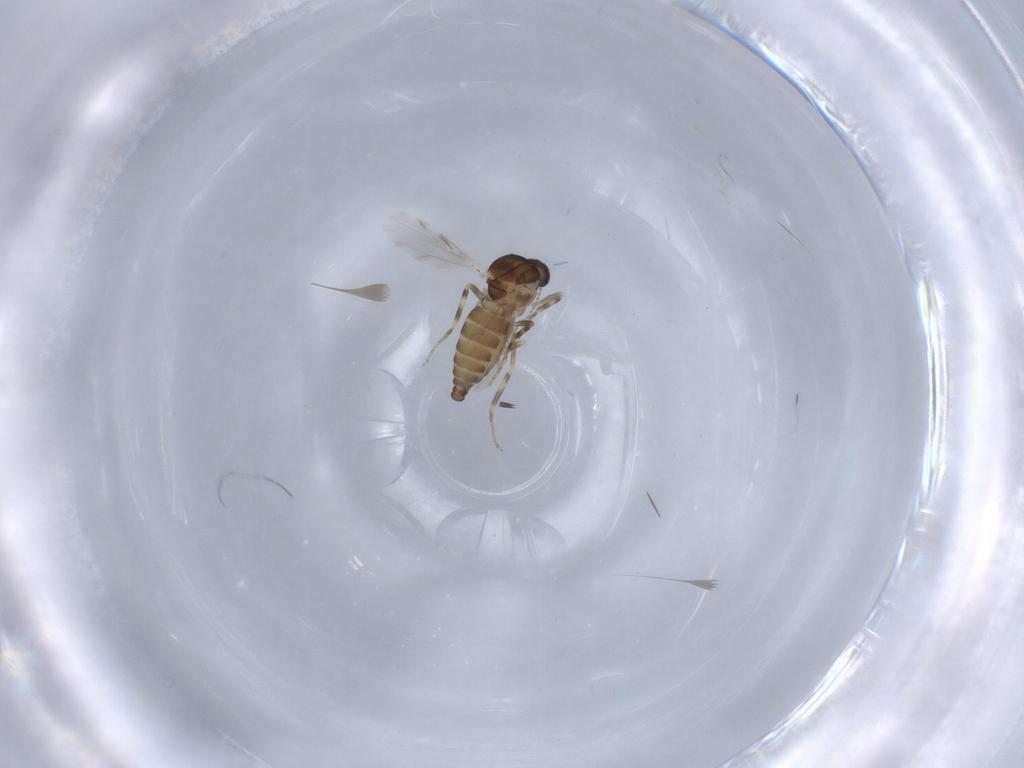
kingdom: Animalia
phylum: Arthropoda
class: Insecta
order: Diptera
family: Ceratopogonidae
